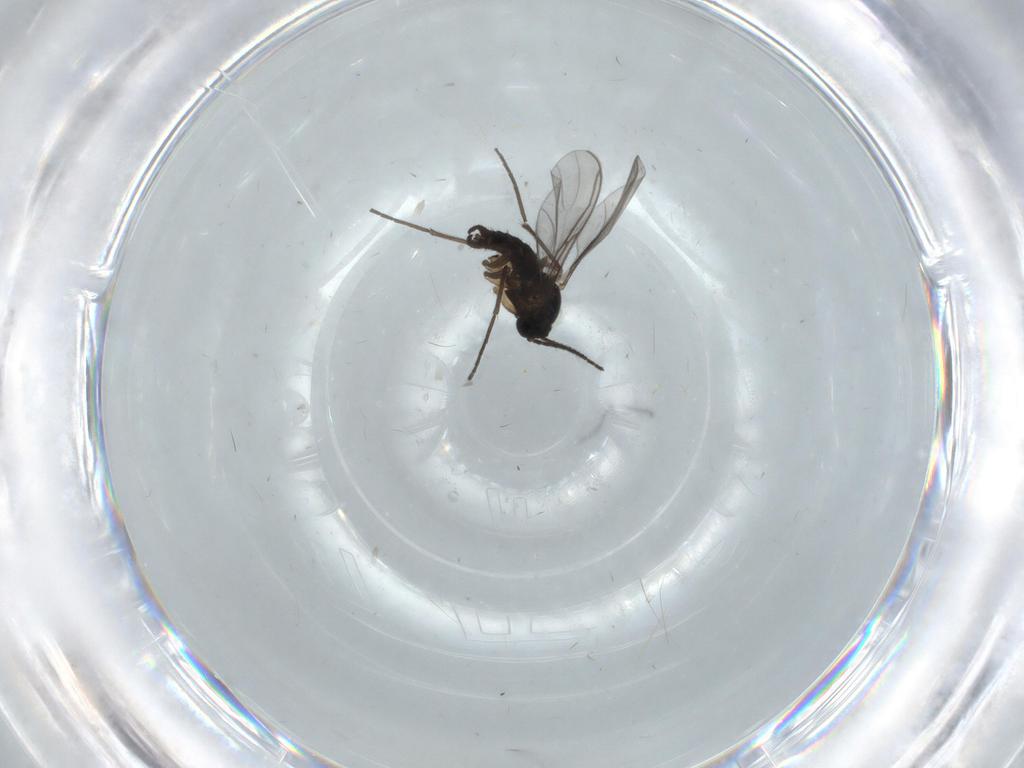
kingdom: Animalia
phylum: Arthropoda
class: Insecta
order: Diptera
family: Sciaridae
